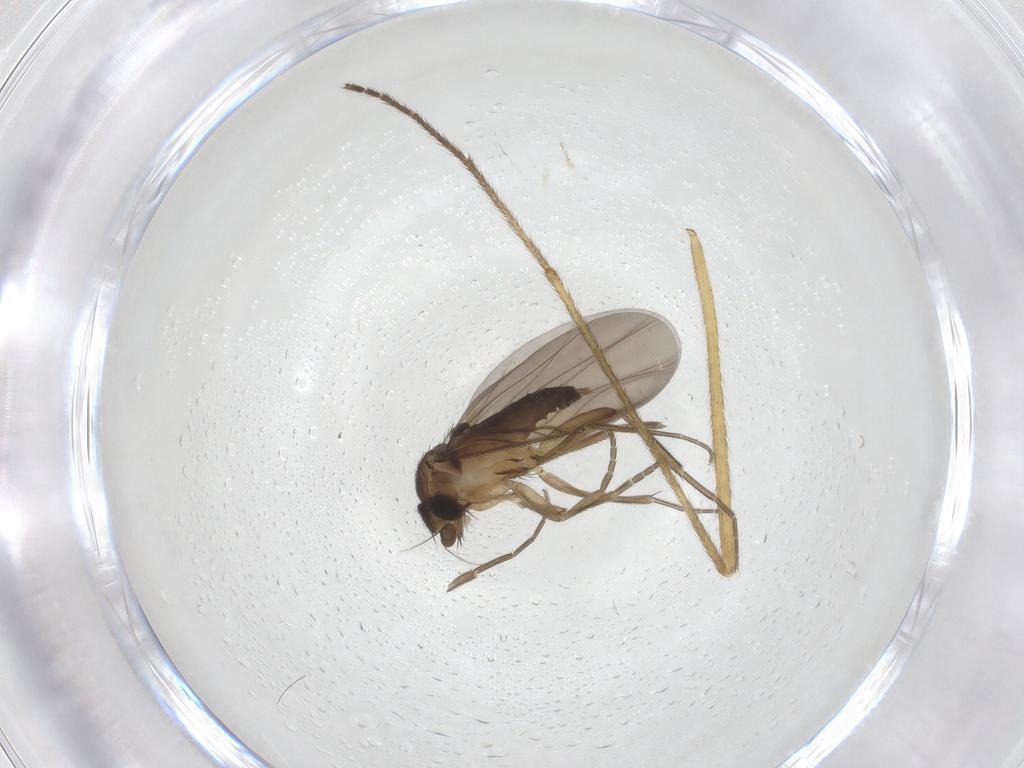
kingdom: Animalia
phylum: Arthropoda
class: Insecta
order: Diptera
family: Limoniidae
